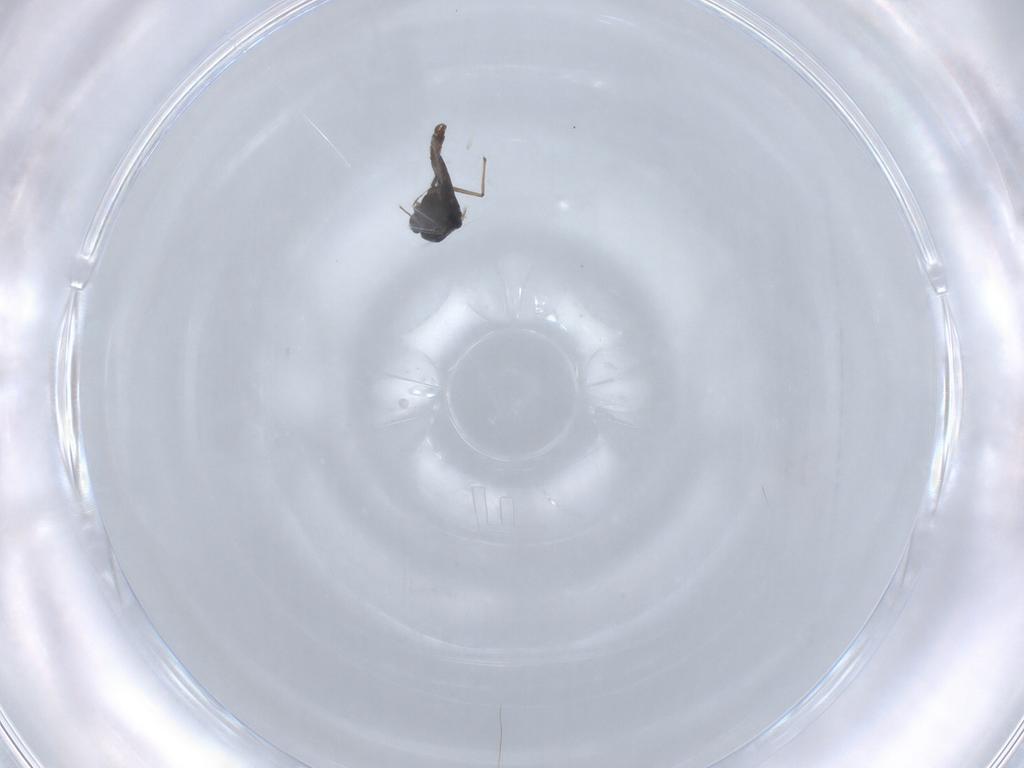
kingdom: Animalia
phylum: Arthropoda
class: Insecta
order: Diptera
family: Chironomidae
